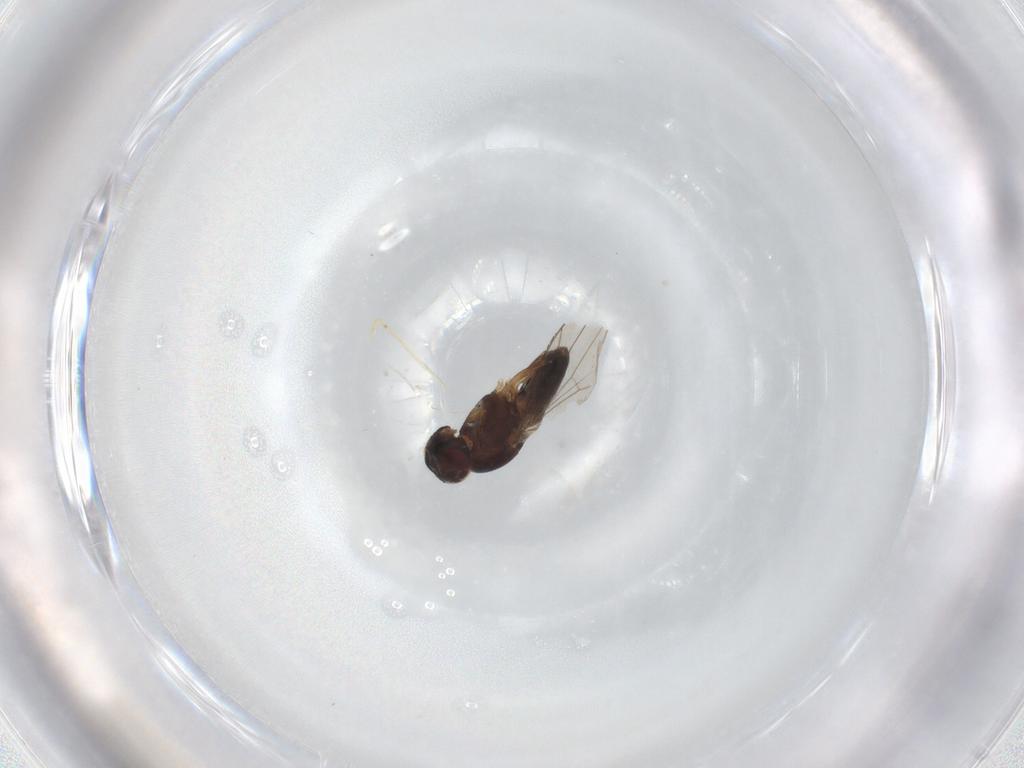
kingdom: Animalia
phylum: Arthropoda
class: Insecta
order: Diptera
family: Ephydridae
